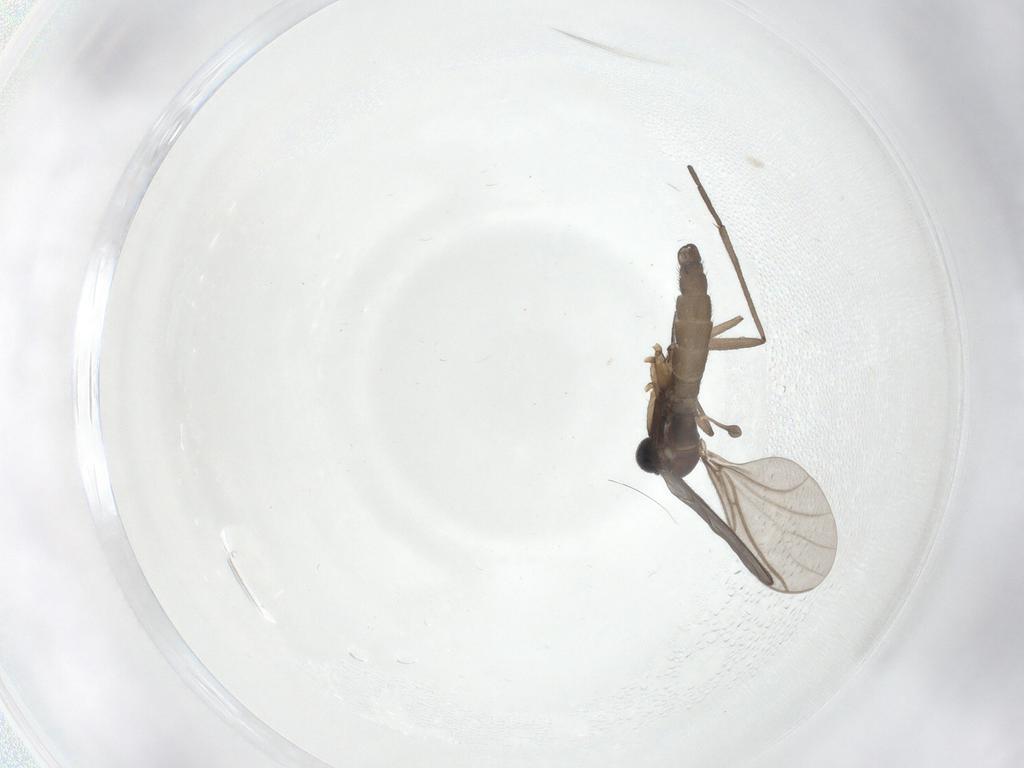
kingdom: Animalia
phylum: Arthropoda
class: Insecta
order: Diptera
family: Sciaridae
